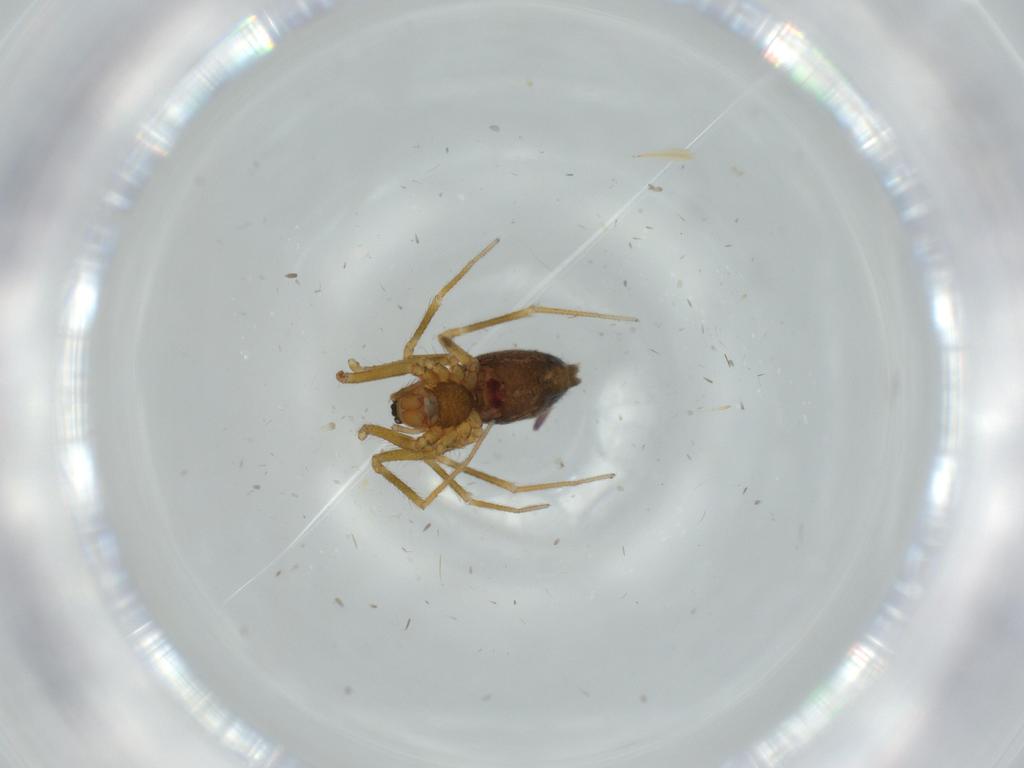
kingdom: Animalia
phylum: Arthropoda
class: Arachnida
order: Araneae
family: Linyphiidae
